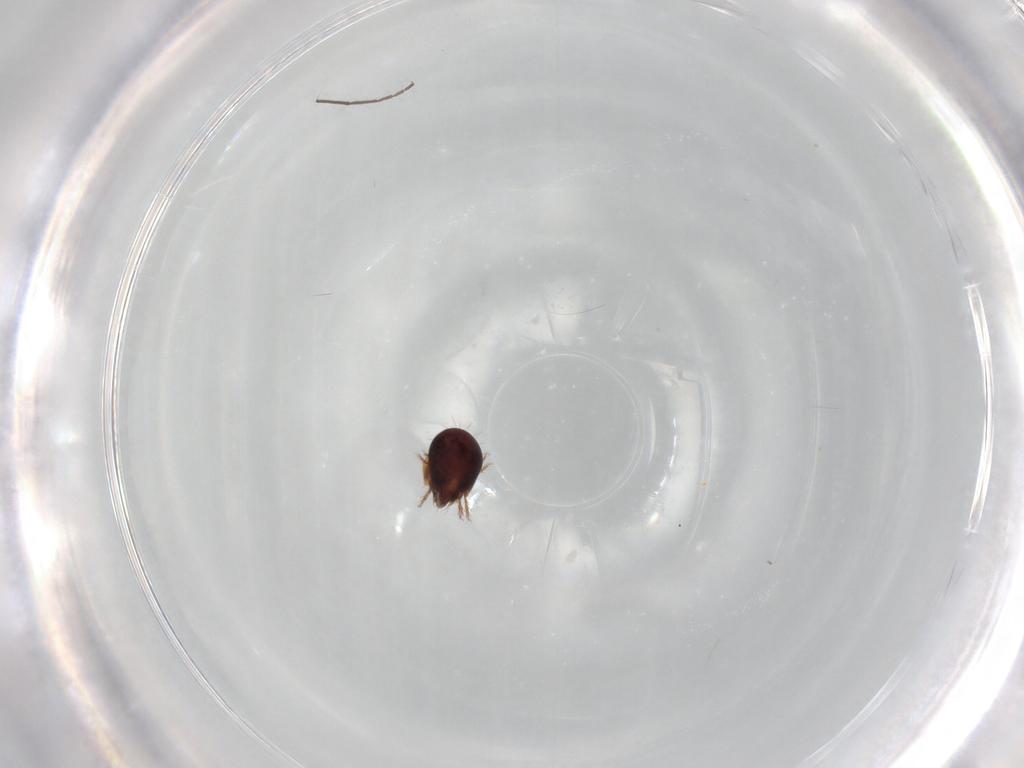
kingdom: Animalia
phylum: Arthropoda
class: Arachnida
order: Sarcoptiformes
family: Humerobatidae
